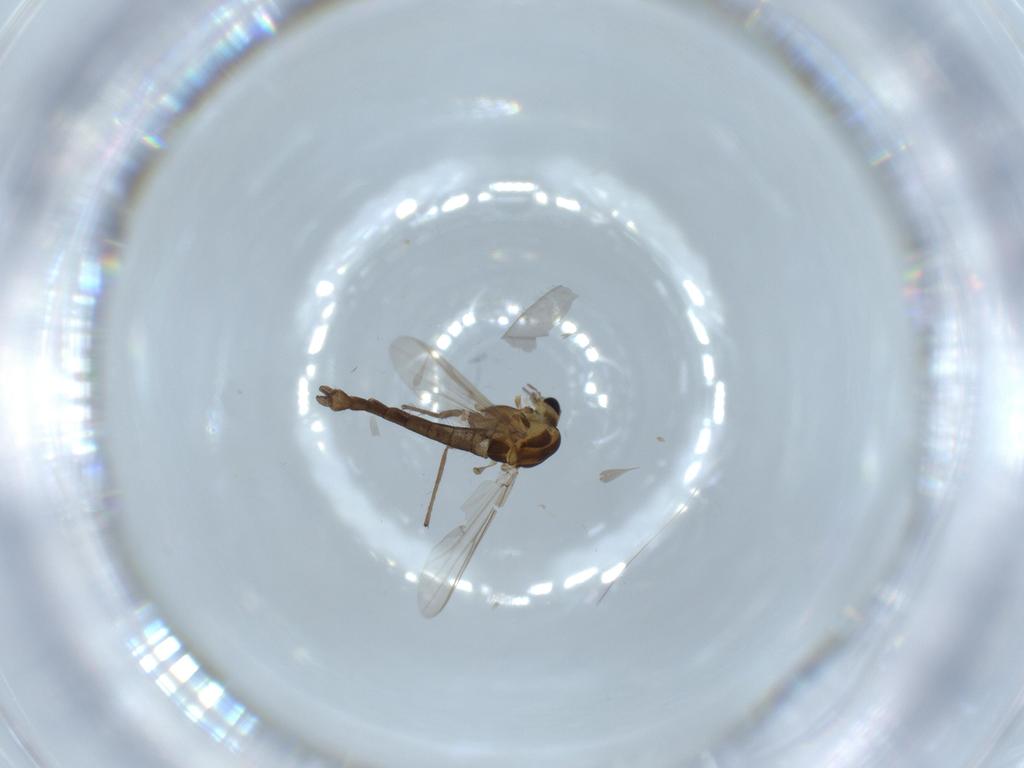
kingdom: Animalia
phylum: Arthropoda
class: Insecta
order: Diptera
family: Chironomidae
